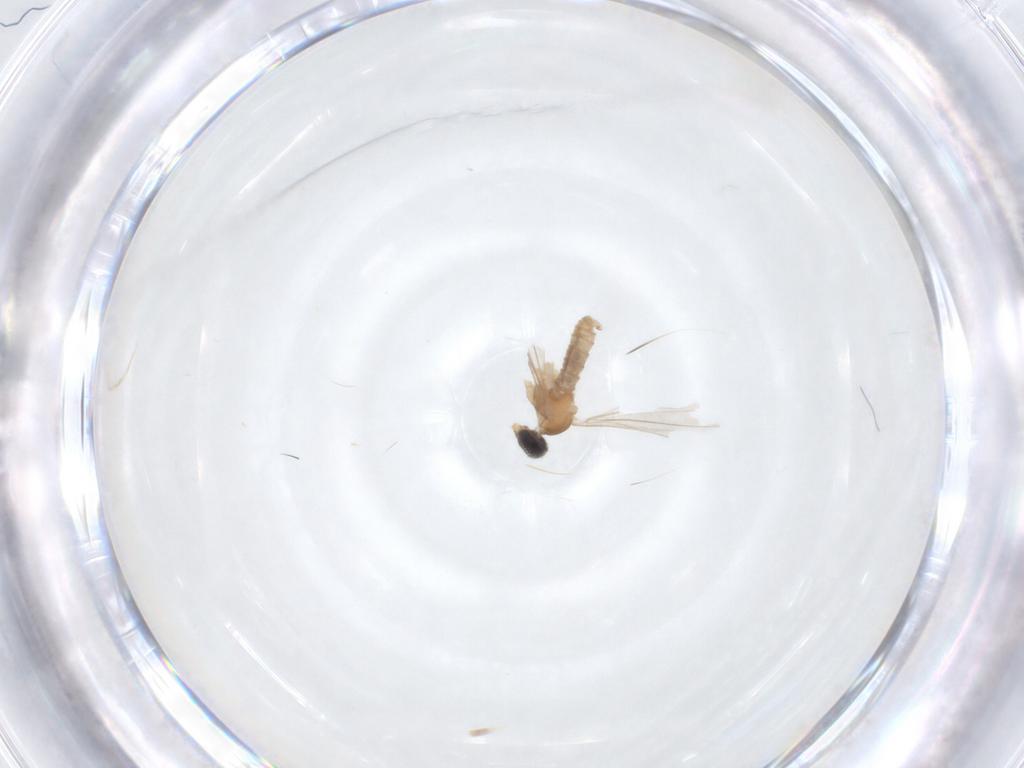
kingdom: Animalia
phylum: Arthropoda
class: Insecta
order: Diptera
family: Cecidomyiidae
